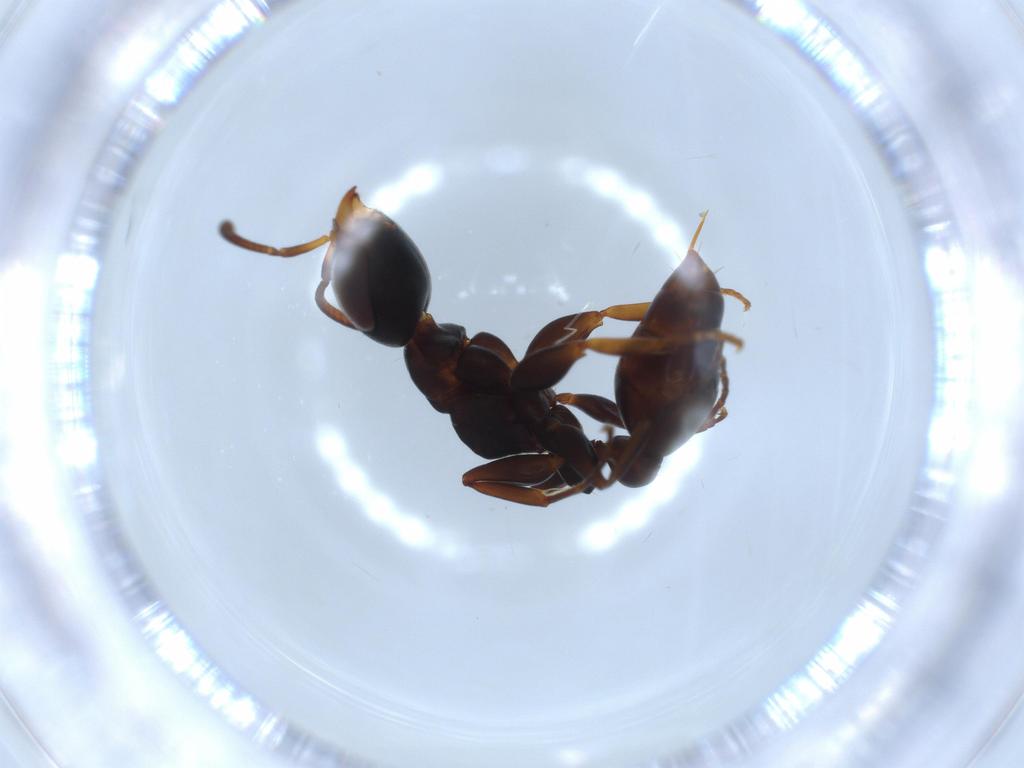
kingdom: Animalia
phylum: Arthropoda
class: Insecta
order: Hymenoptera
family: Formicidae
